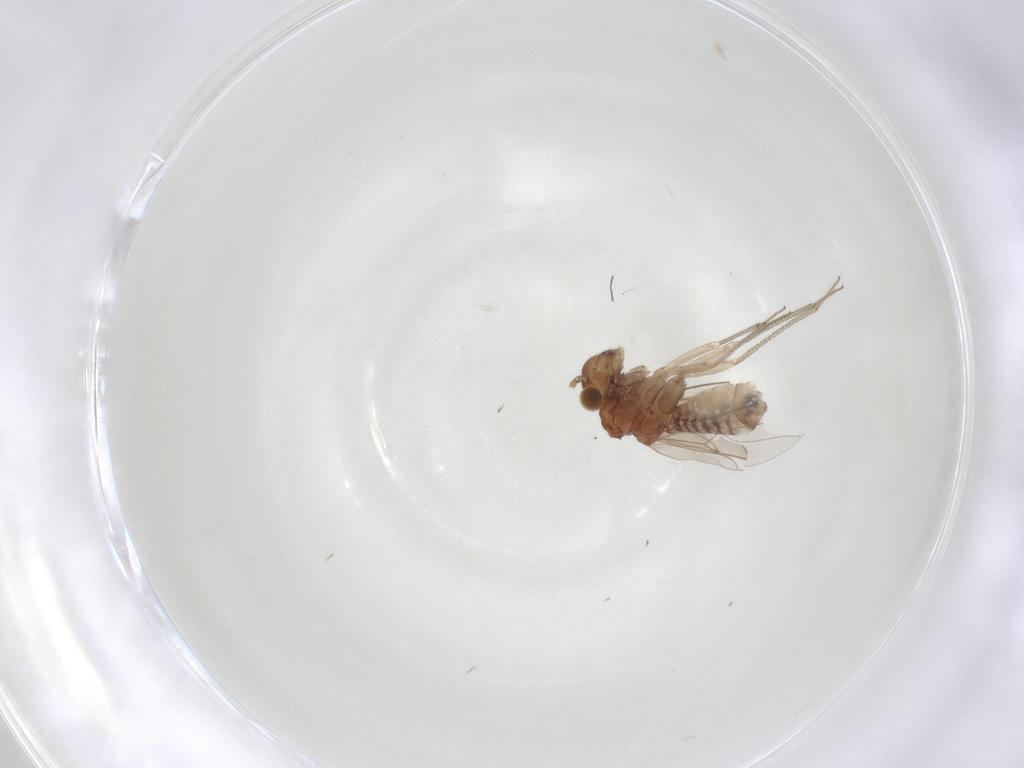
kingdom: Animalia
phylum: Arthropoda
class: Insecta
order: Psocodea
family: Lachesillidae
